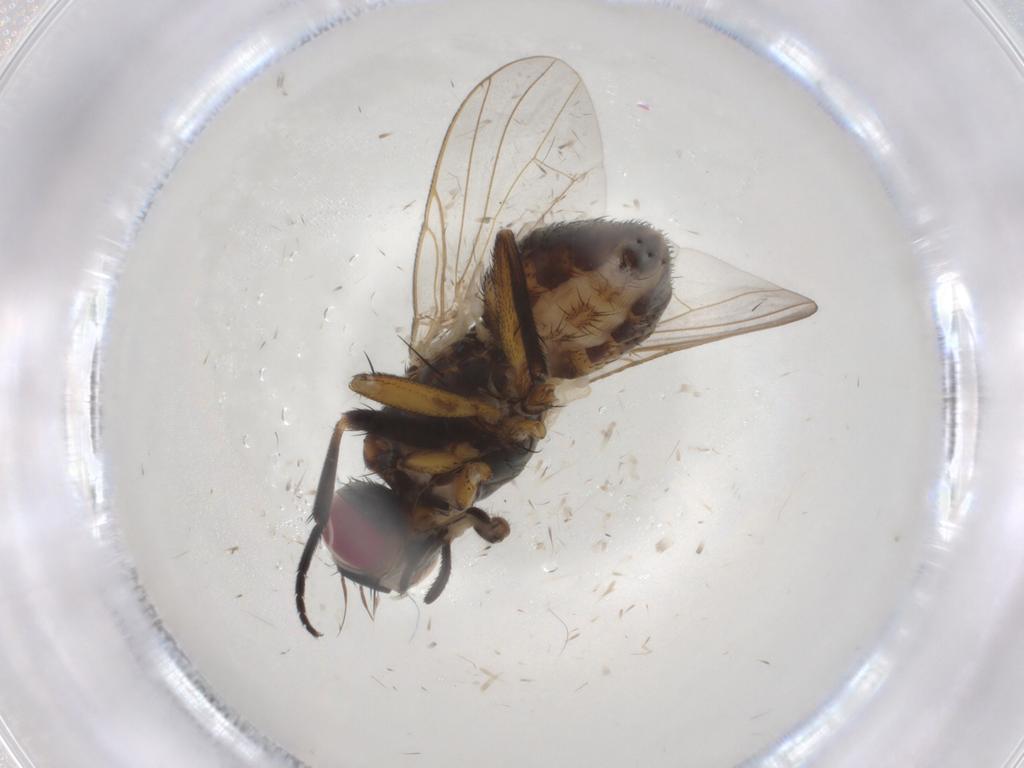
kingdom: Animalia
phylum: Arthropoda
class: Insecta
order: Diptera
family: Muscidae
